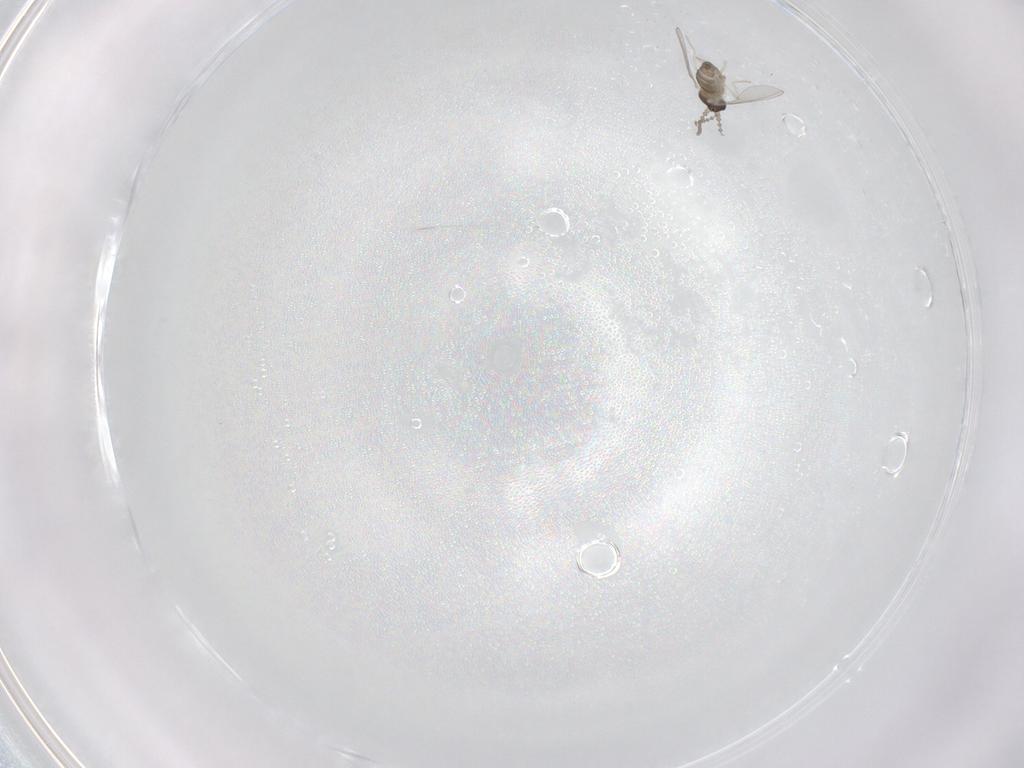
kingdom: Animalia
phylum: Arthropoda
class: Insecta
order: Diptera
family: Cecidomyiidae
